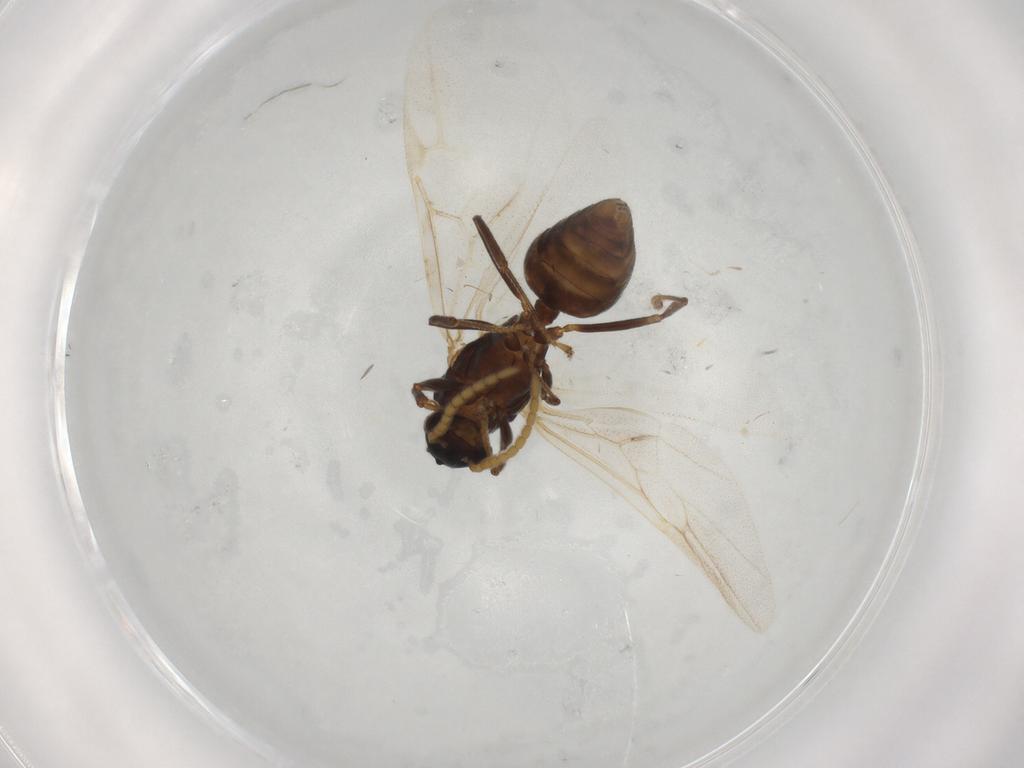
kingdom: Animalia
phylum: Arthropoda
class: Insecta
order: Hymenoptera
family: Formicidae
